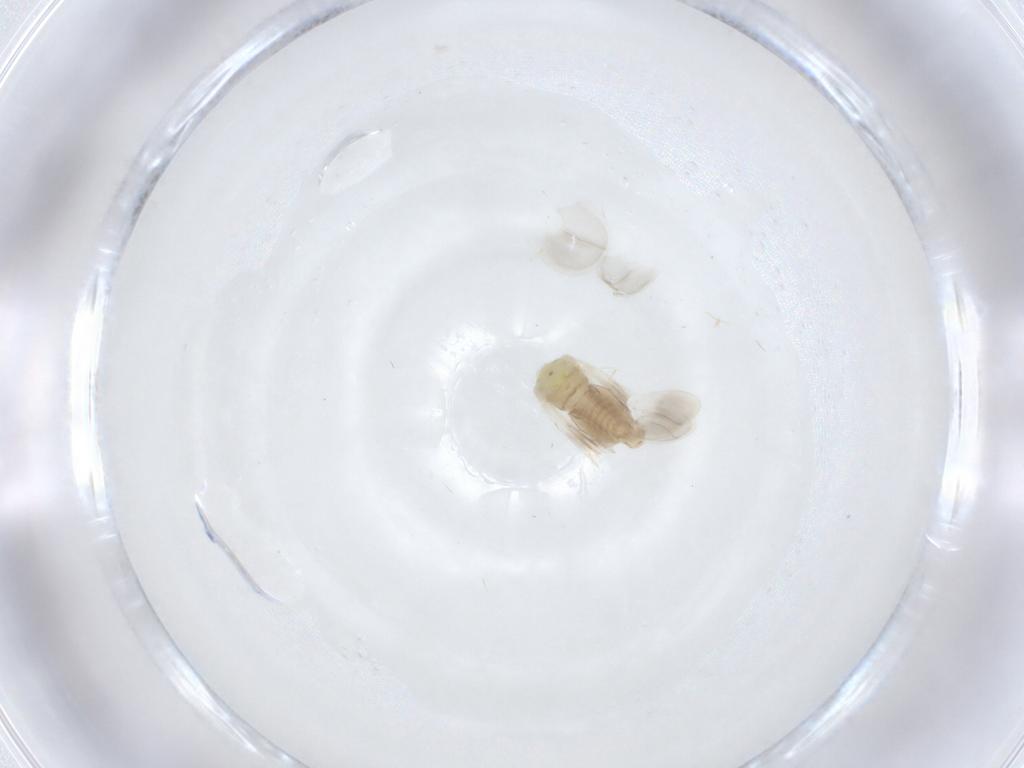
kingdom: Animalia
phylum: Arthropoda
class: Insecta
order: Hemiptera
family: Aleyrodidae
